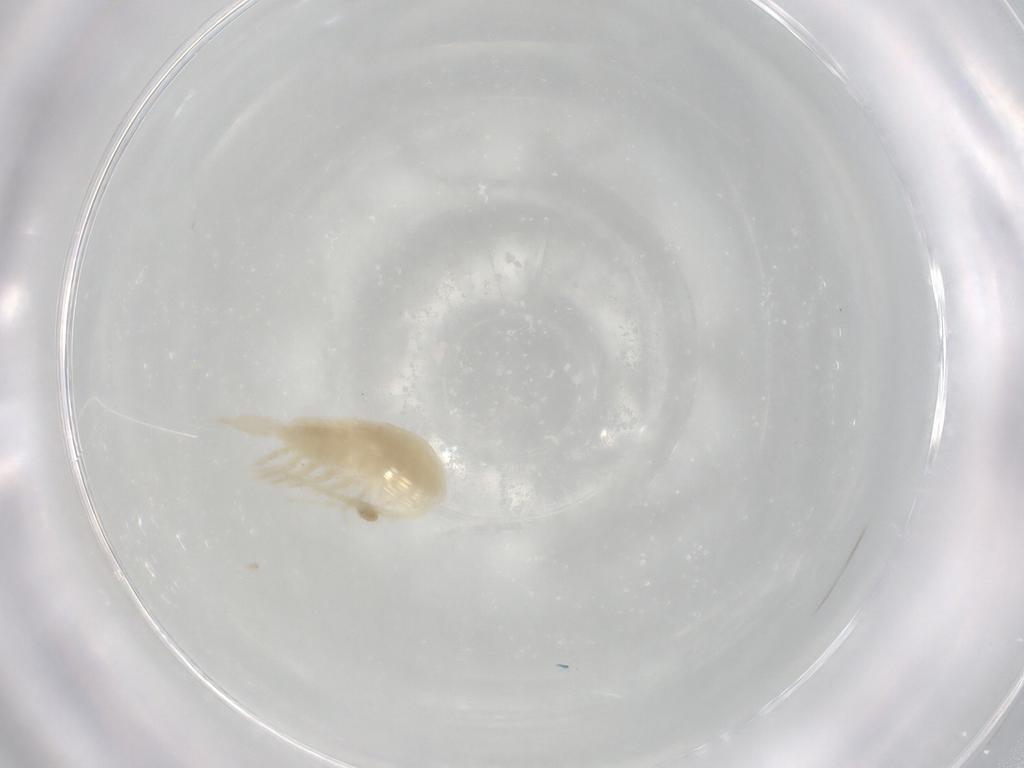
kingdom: Animalia
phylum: Arthropoda
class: Copepoda
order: Calanoida
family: Diaptomidae
